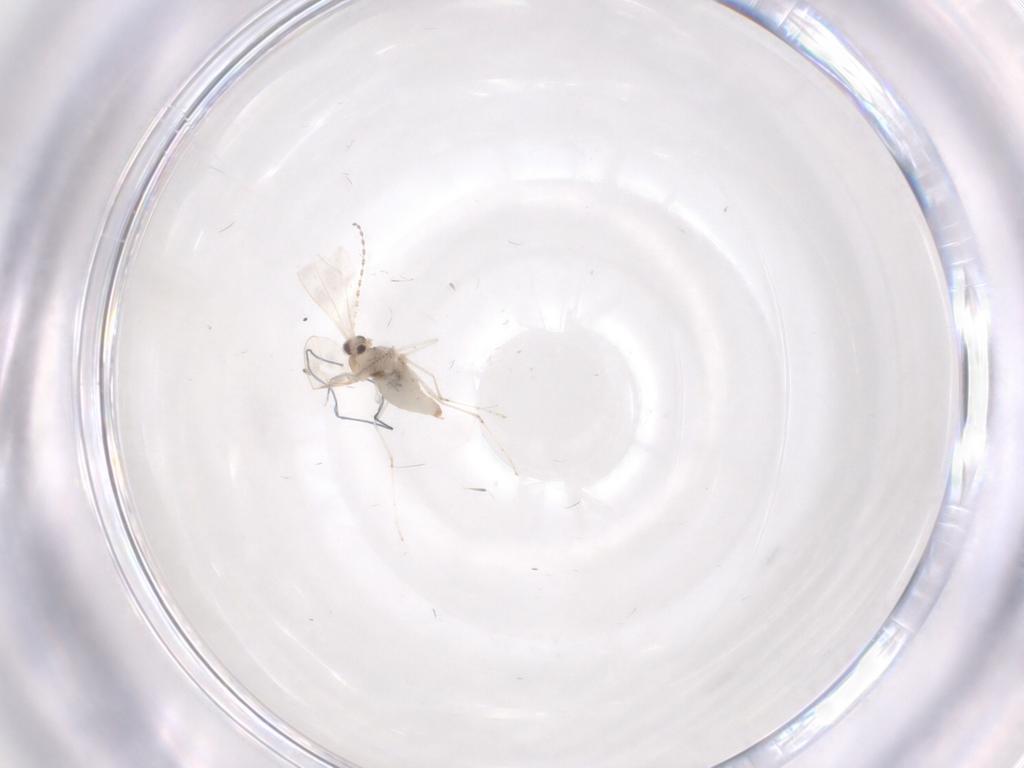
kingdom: Animalia
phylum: Arthropoda
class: Insecta
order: Diptera
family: Cecidomyiidae
